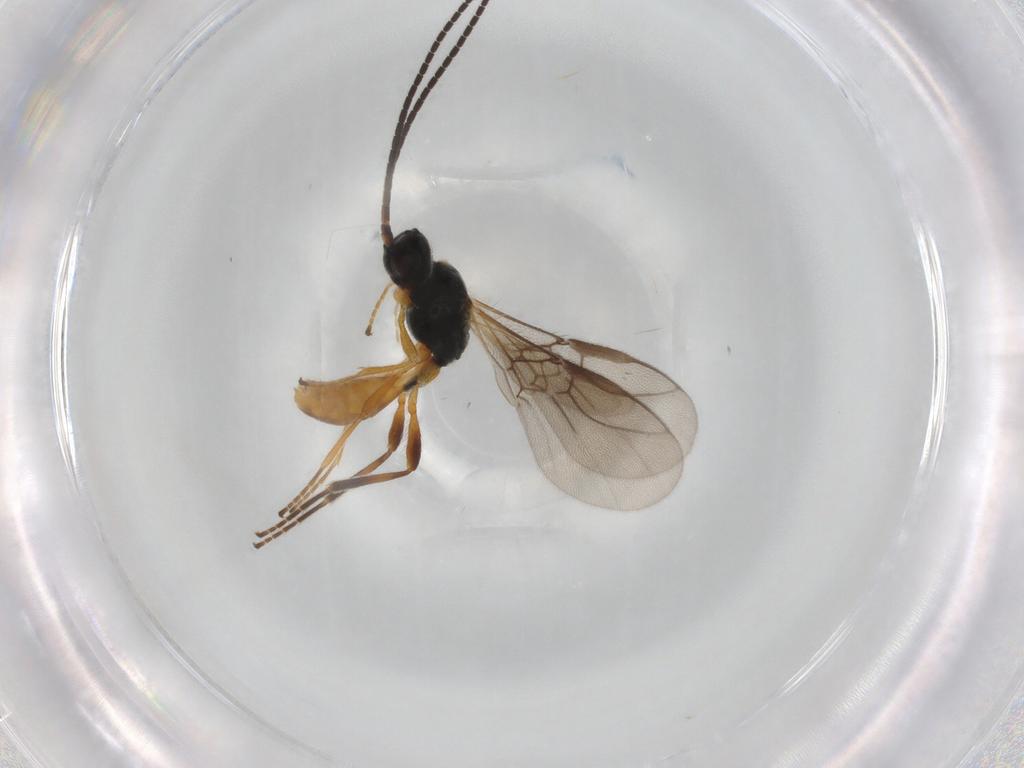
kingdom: Animalia
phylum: Arthropoda
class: Insecta
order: Hymenoptera
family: Braconidae
